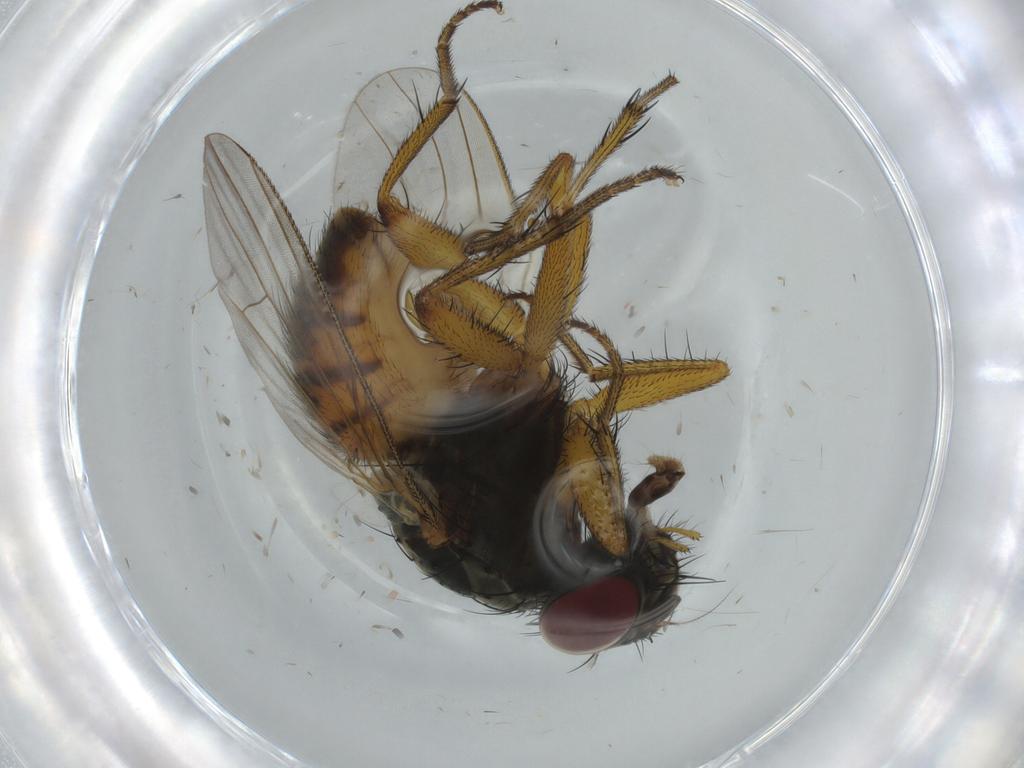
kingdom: Animalia
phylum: Arthropoda
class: Insecta
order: Diptera
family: Muscidae
